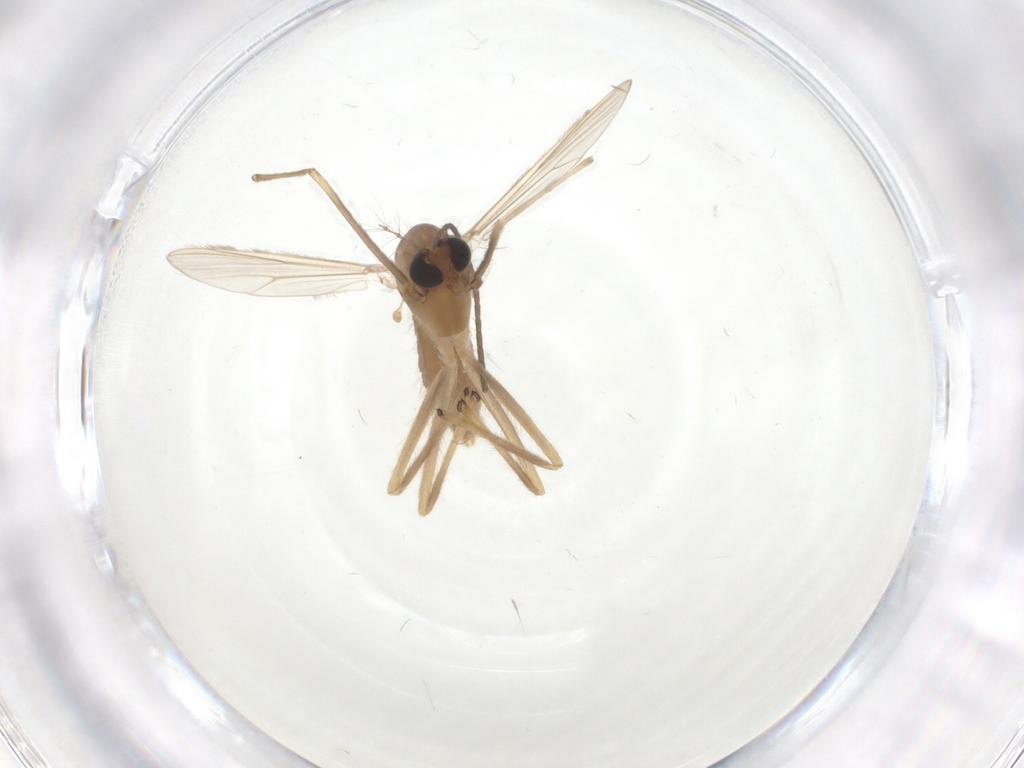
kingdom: Animalia
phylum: Arthropoda
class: Insecta
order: Diptera
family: Chironomidae
